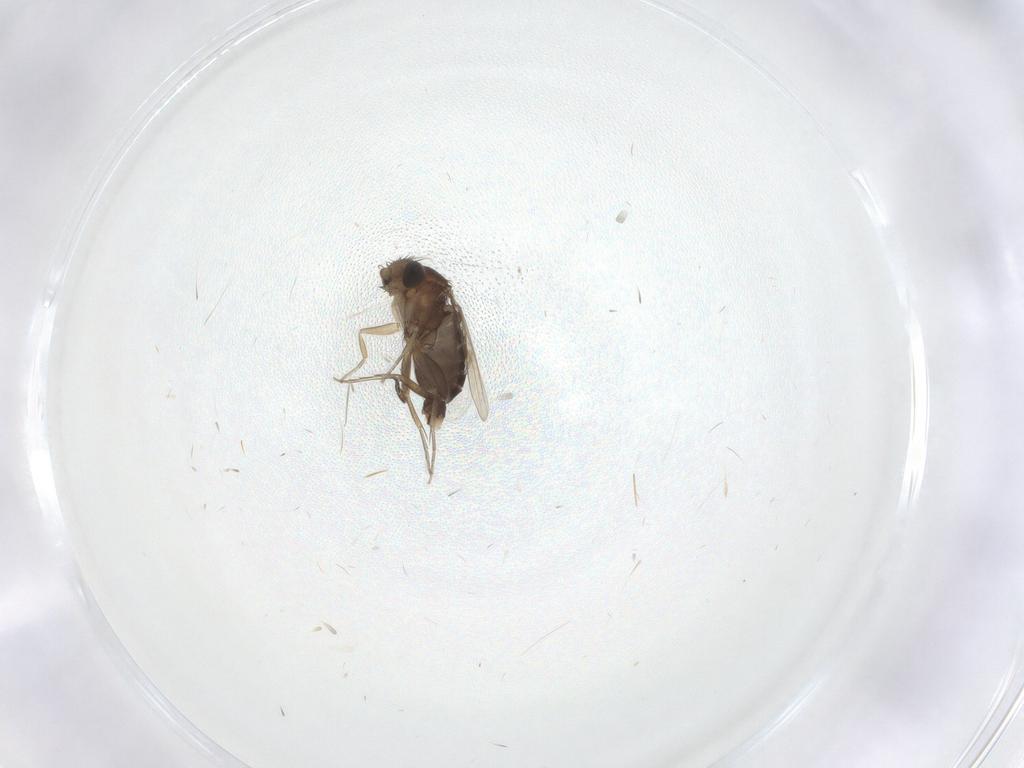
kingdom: Animalia
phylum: Arthropoda
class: Insecta
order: Diptera
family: Phoridae
